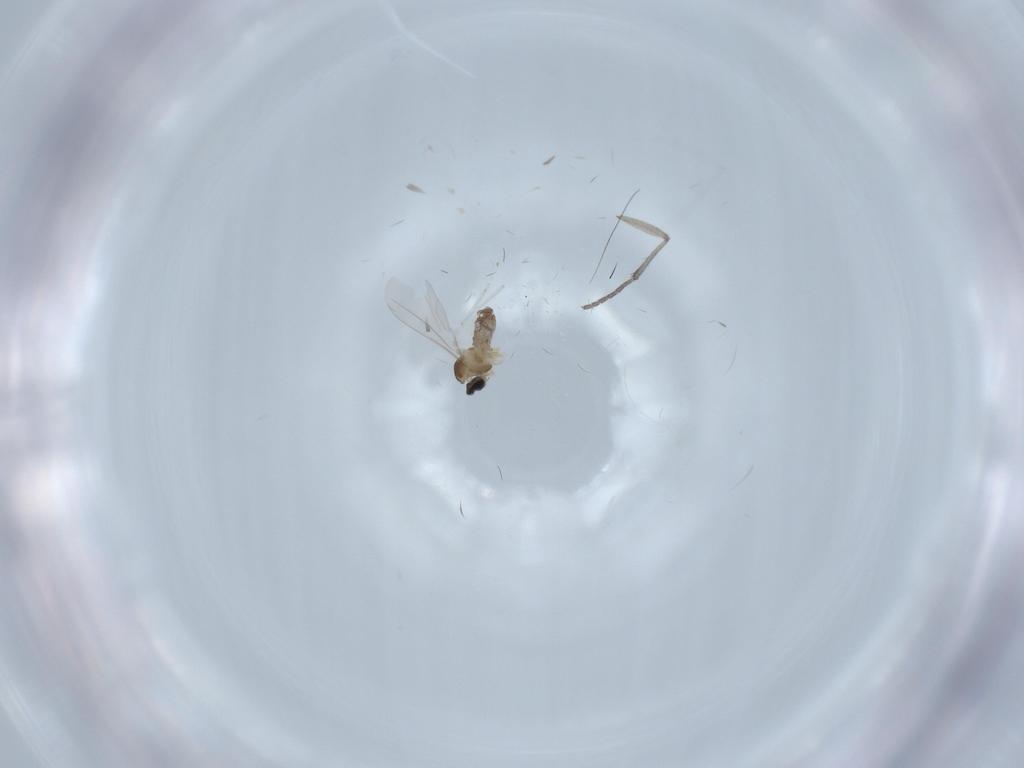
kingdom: Animalia
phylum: Arthropoda
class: Insecta
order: Diptera
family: Cecidomyiidae
